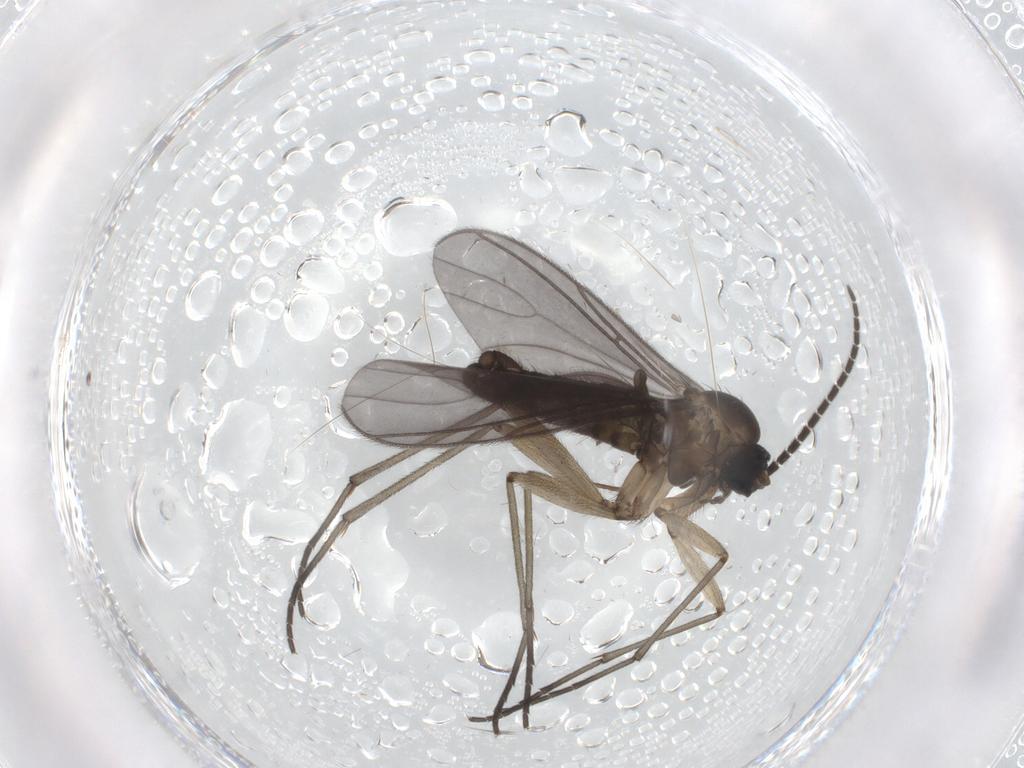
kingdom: Animalia
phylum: Arthropoda
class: Insecta
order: Diptera
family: Sciaridae
